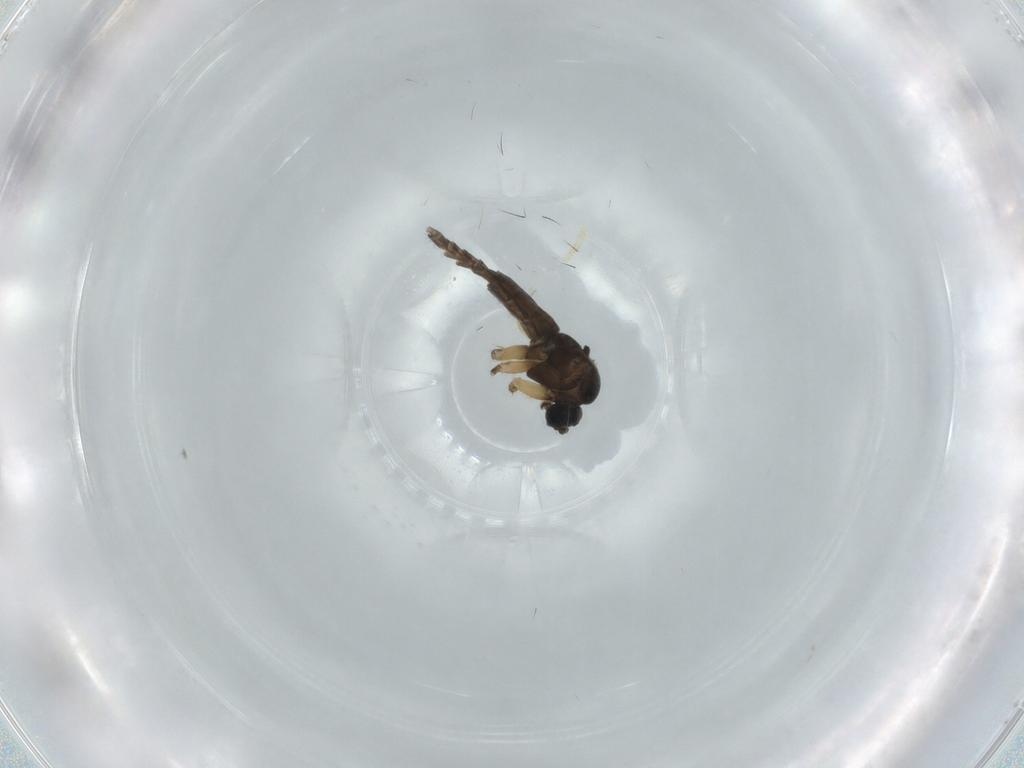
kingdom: Animalia
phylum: Arthropoda
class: Insecta
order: Diptera
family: Sciaridae
